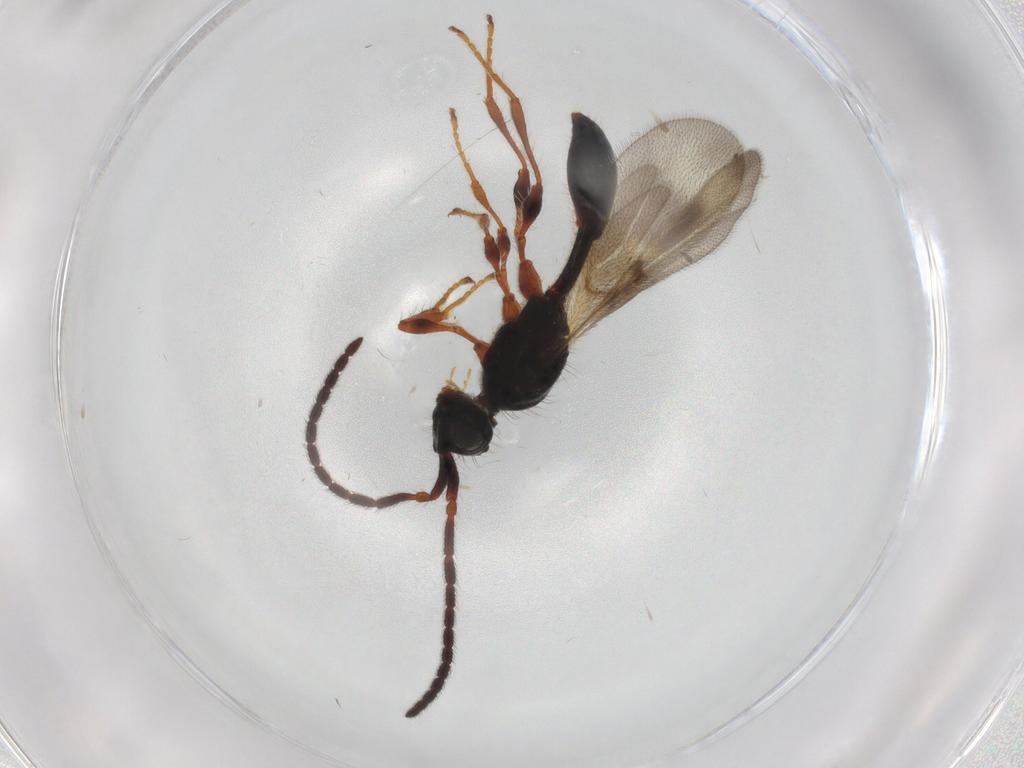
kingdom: Animalia
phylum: Arthropoda
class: Insecta
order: Hymenoptera
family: Diapriidae
